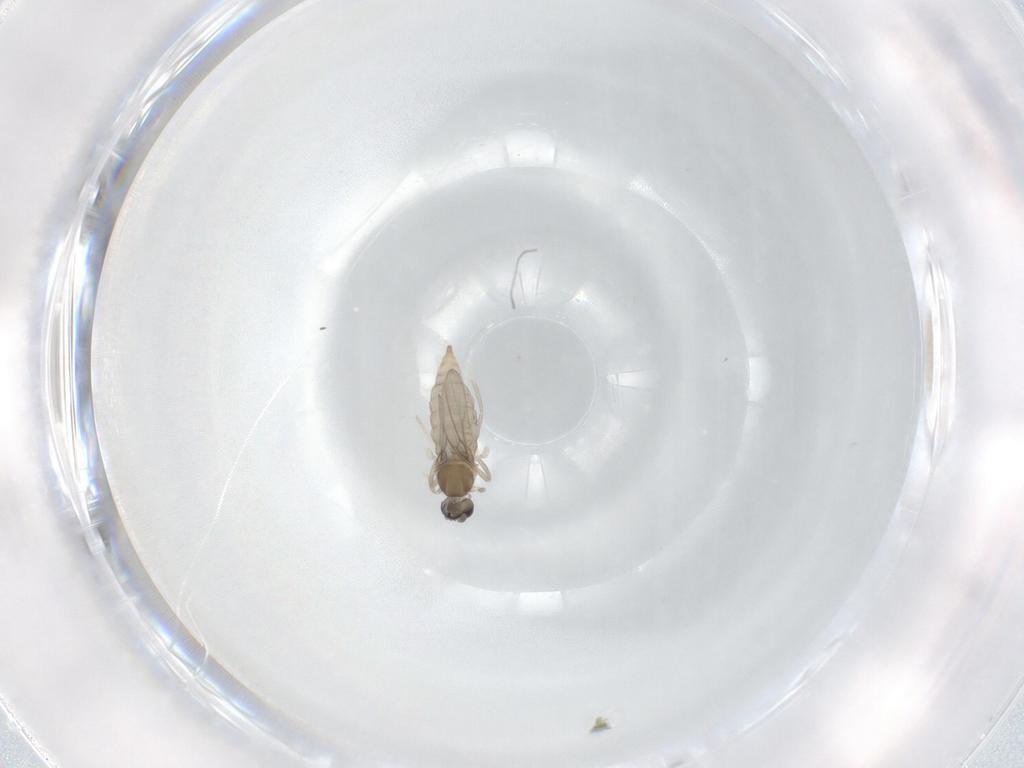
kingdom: Animalia
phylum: Arthropoda
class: Insecta
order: Diptera
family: Cecidomyiidae
